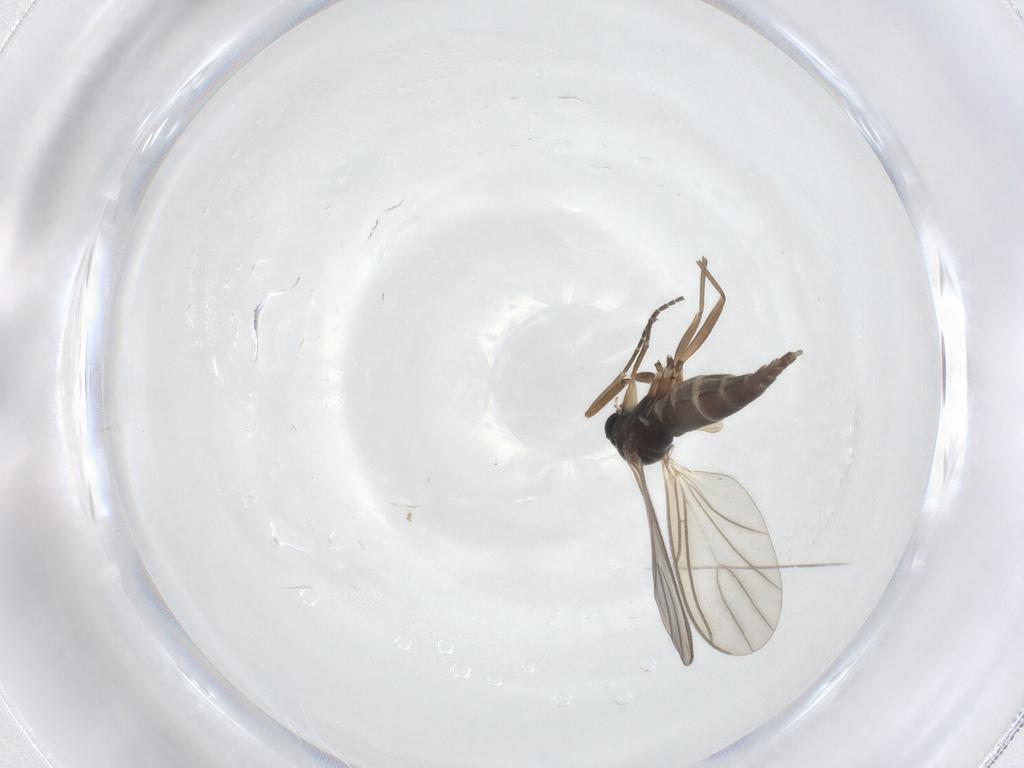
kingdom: Animalia
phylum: Arthropoda
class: Insecta
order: Diptera
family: Sciaridae
